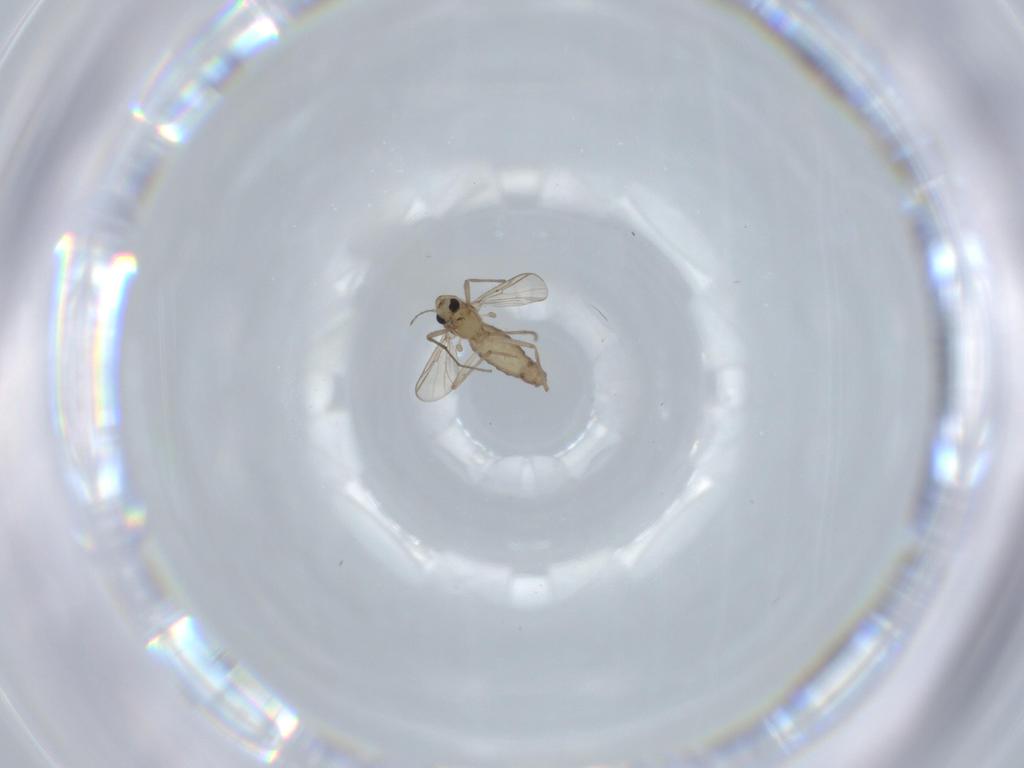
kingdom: Animalia
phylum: Arthropoda
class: Insecta
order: Diptera
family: Chironomidae
